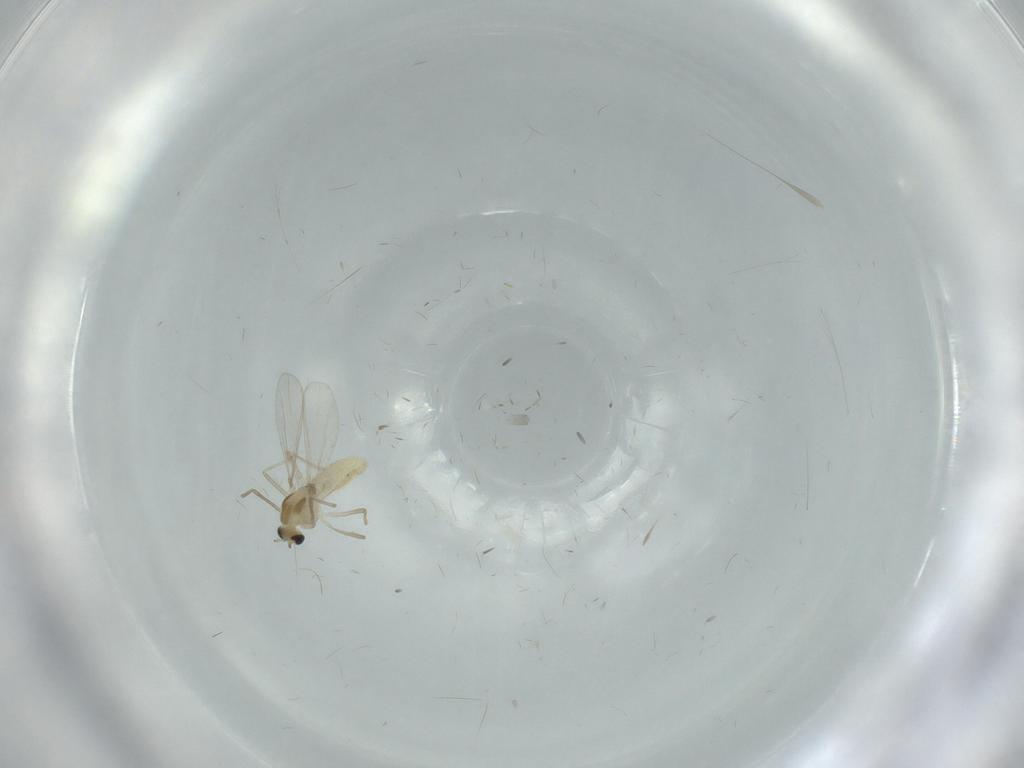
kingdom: Animalia
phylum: Arthropoda
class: Insecta
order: Diptera
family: Chironomidae
